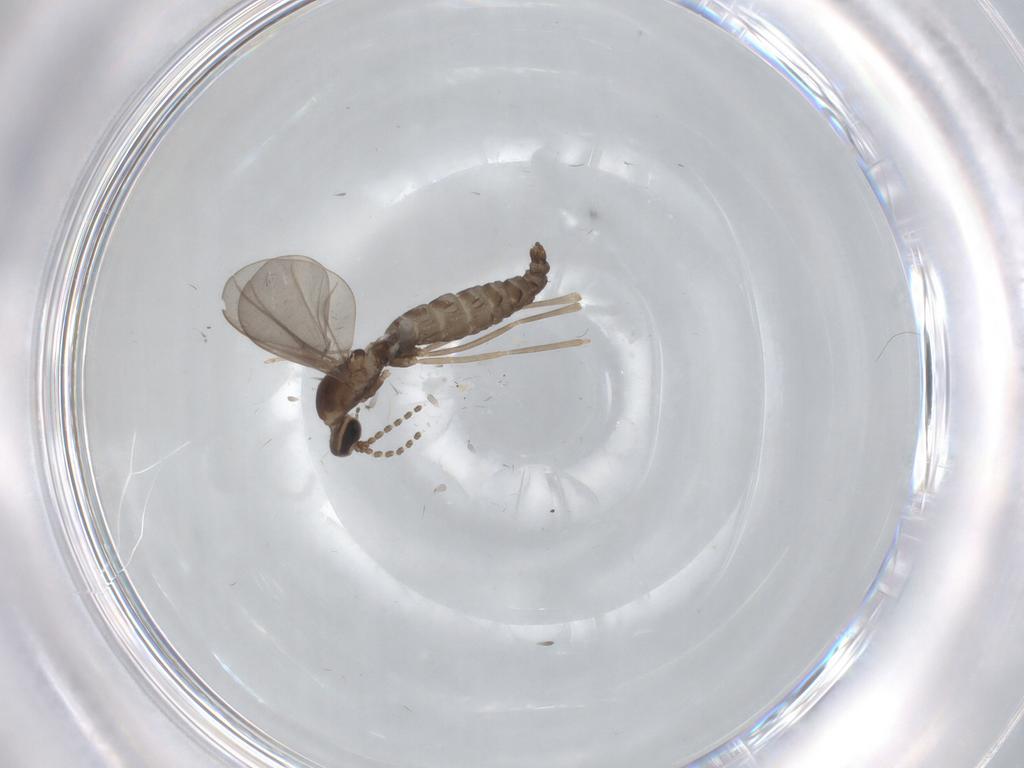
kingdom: Animalia
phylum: Arthropoda
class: Insecta
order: Diptera
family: Cecidomyiidae
